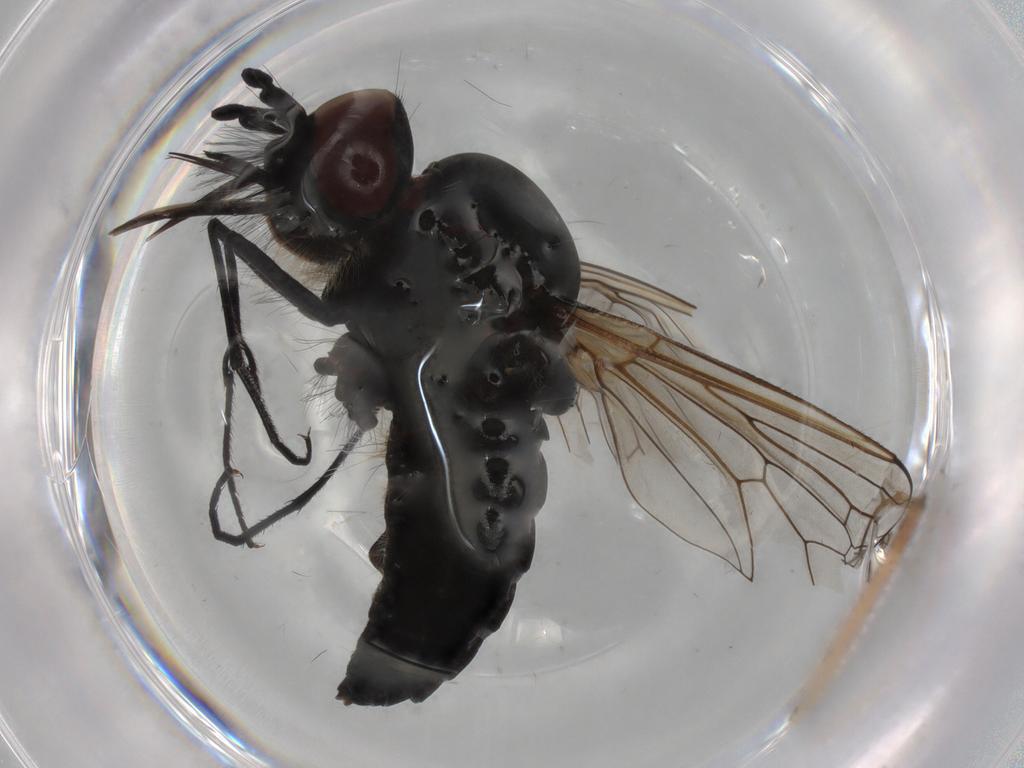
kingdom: Animalia
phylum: Arthropoda
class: Insecta
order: Diptera
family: Bombyliidae
